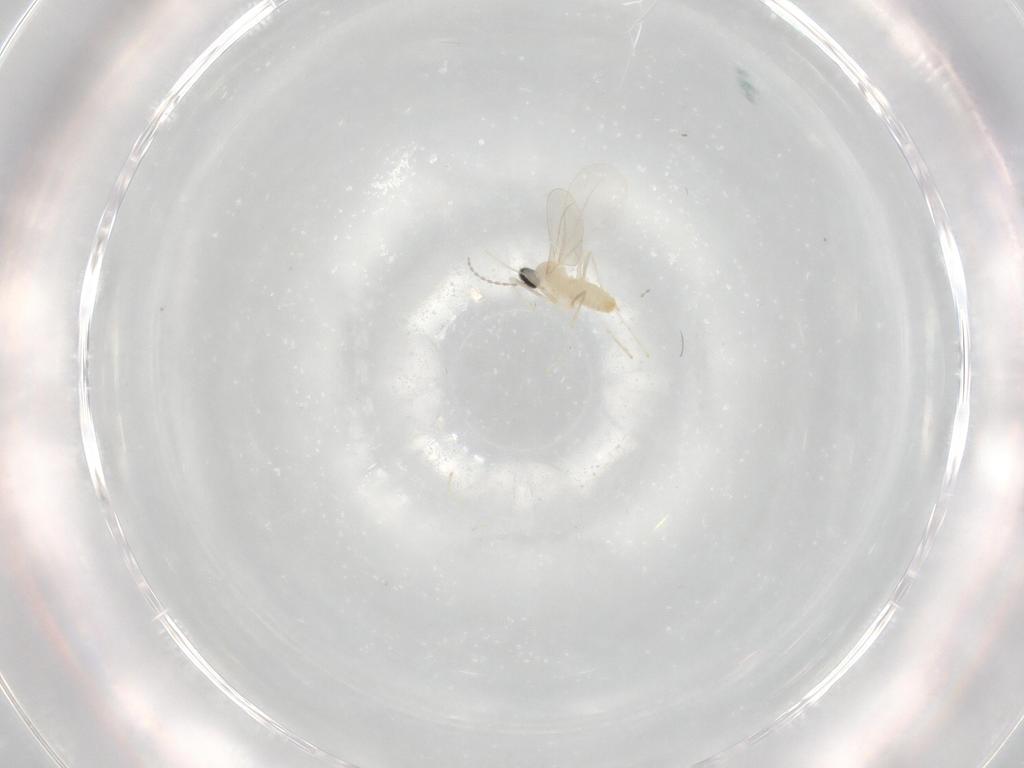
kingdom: Animalia
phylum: Arthropoda
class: Insecta
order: Diptera
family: Cecidomyiidae
